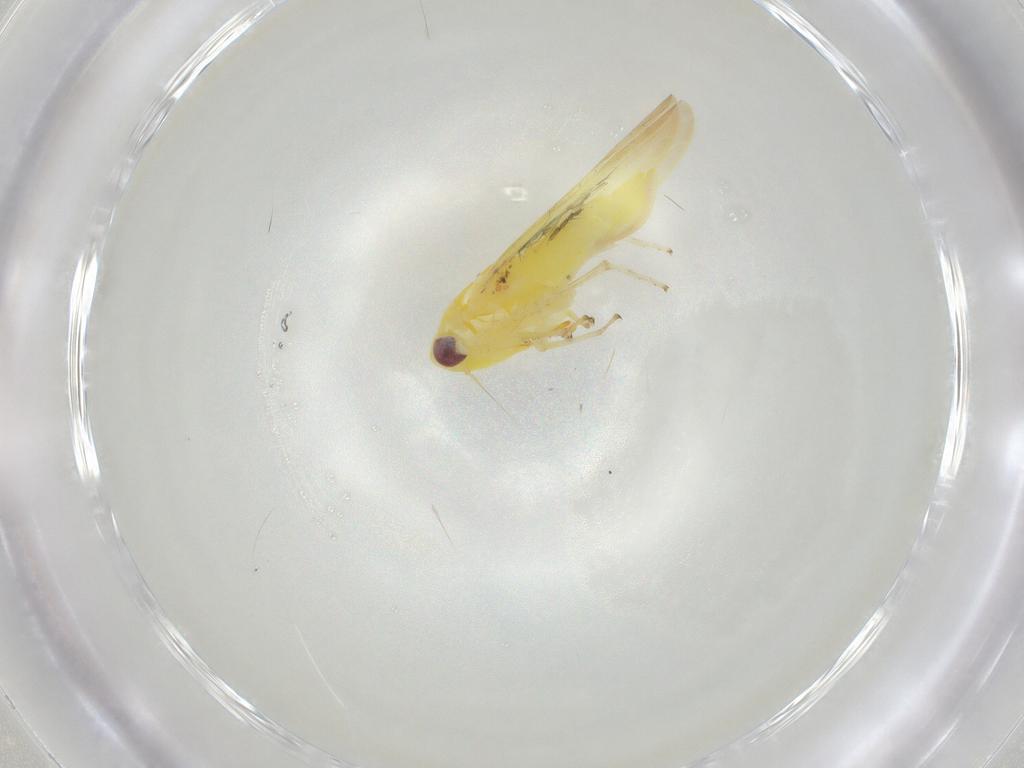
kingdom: Animalia
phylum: Arthropoda
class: Insecta
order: Hemiptera
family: Cicadellidae
